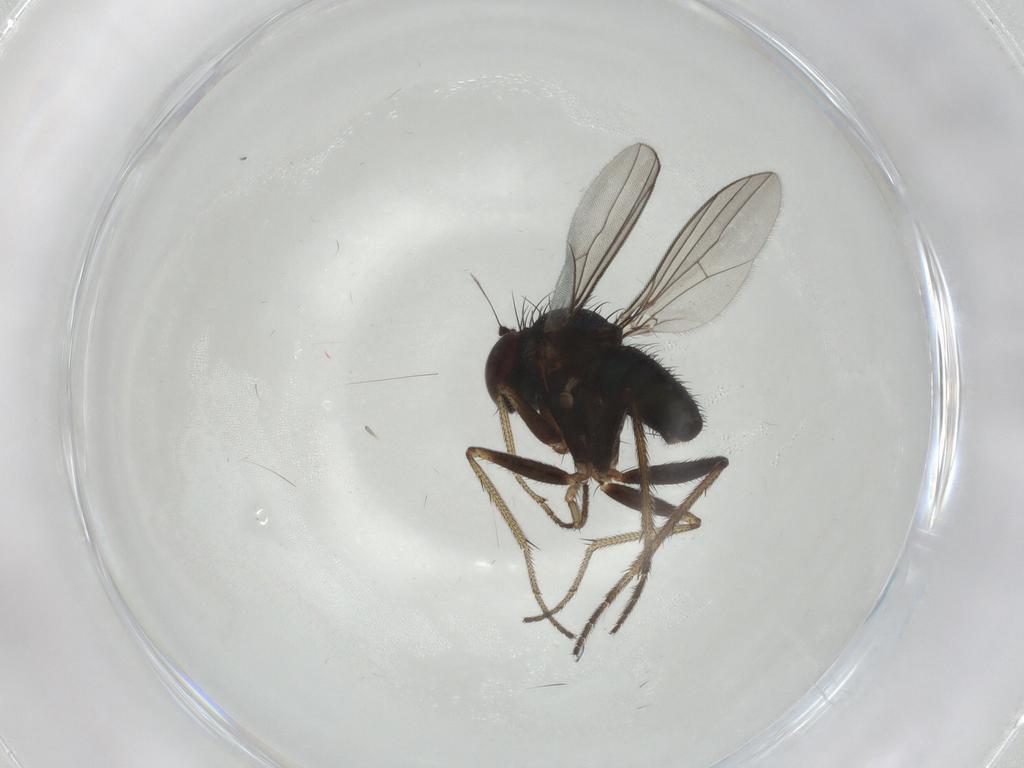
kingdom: Animalia
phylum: Arthropoda
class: Insecta
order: Diptera
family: Dolichopodidae
